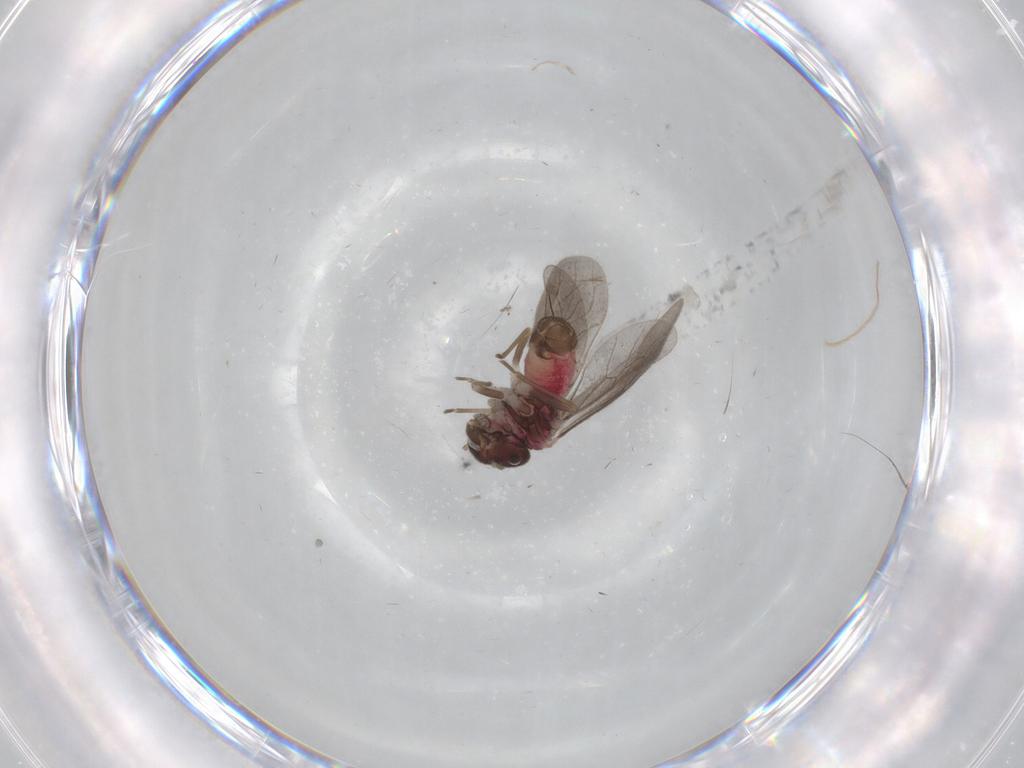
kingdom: Animalia
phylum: Arthropoda
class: Insecta
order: Psocodea
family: Archipsocidae
